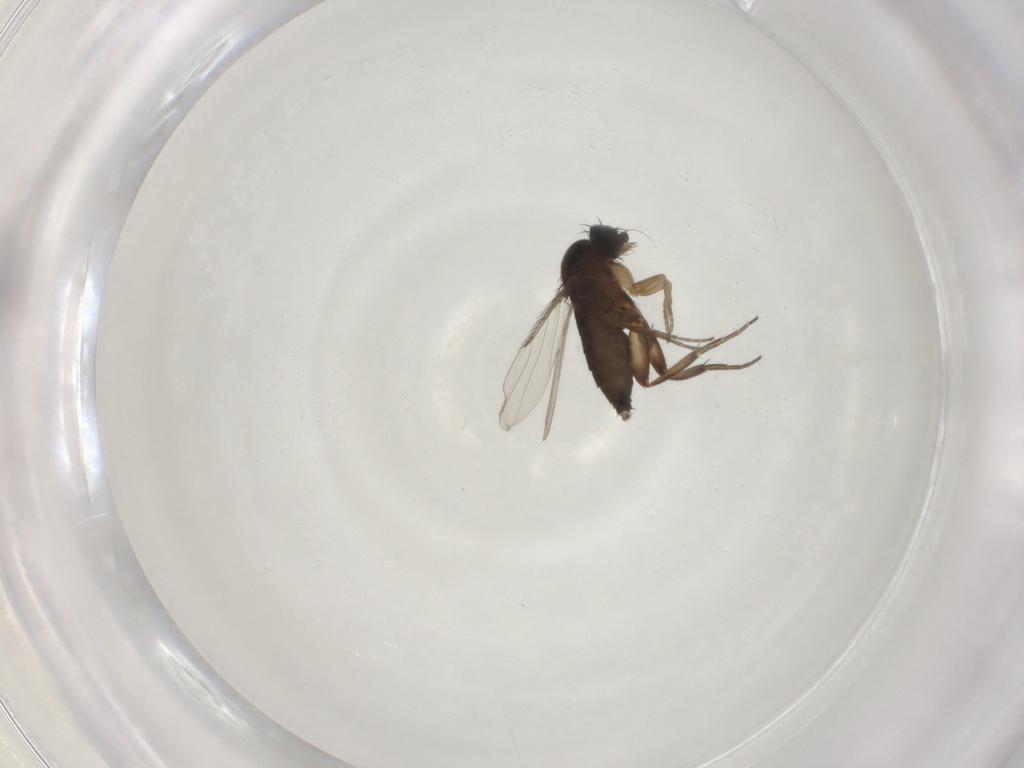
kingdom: Animalia
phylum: Arthropoda
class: Insecta
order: Diptera
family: Phoridae
